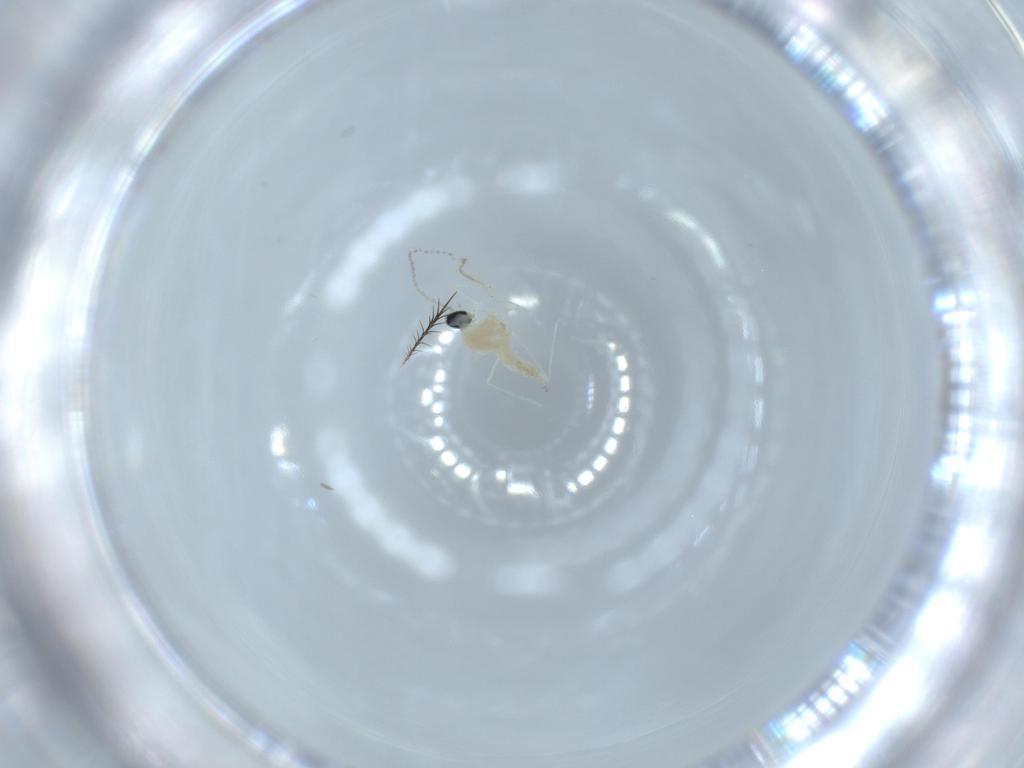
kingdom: Animalia
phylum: Arthropoda
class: Insecta
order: Diptera
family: Cecidomyiidae
